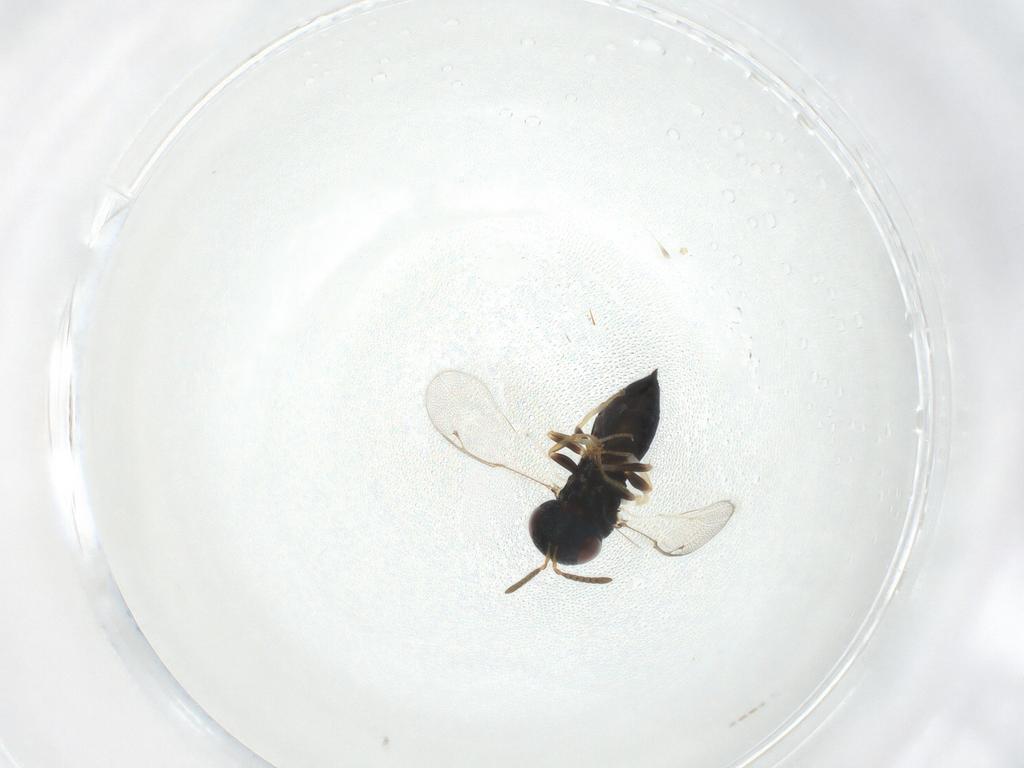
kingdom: Animalia
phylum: Arthropoda
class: Insecta
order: Hymenoptera
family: Pteromalidae
